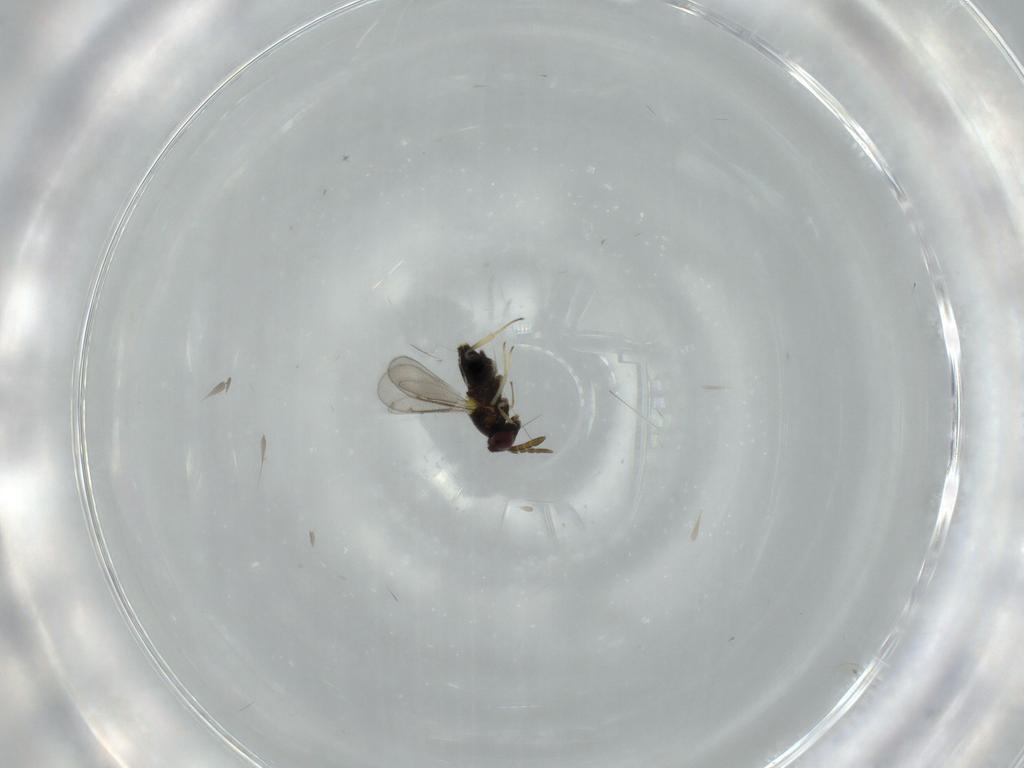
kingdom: Animalia
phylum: Arthropoda
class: Insecta
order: Hymenoptera
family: Aphelinidae
